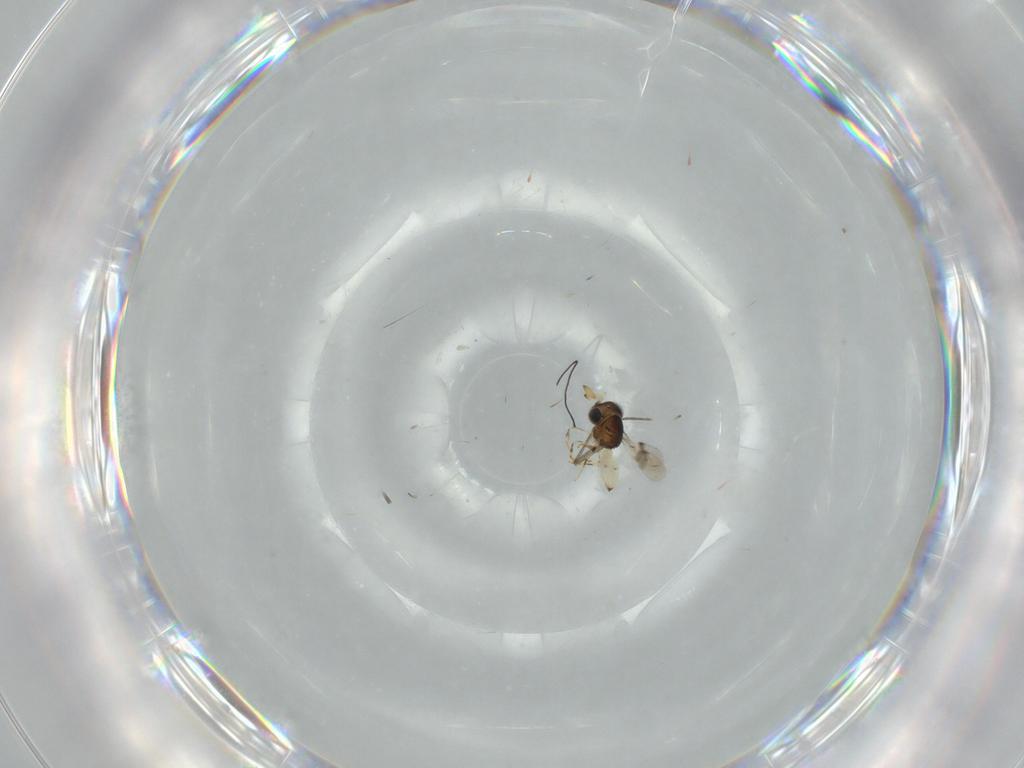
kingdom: Animalia
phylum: Arthropoda
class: Insecta
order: Hymenoptera
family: Scelionidae
